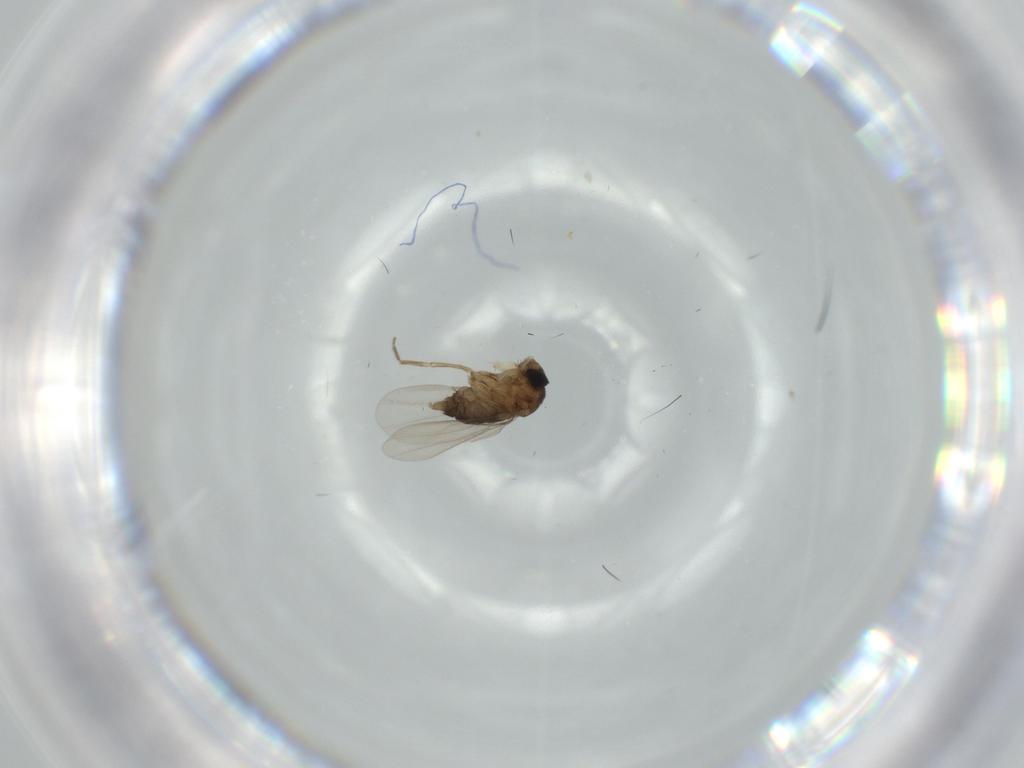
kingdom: Animalia
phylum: Arthropoda
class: Insecta
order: Diptera
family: Phoridae
